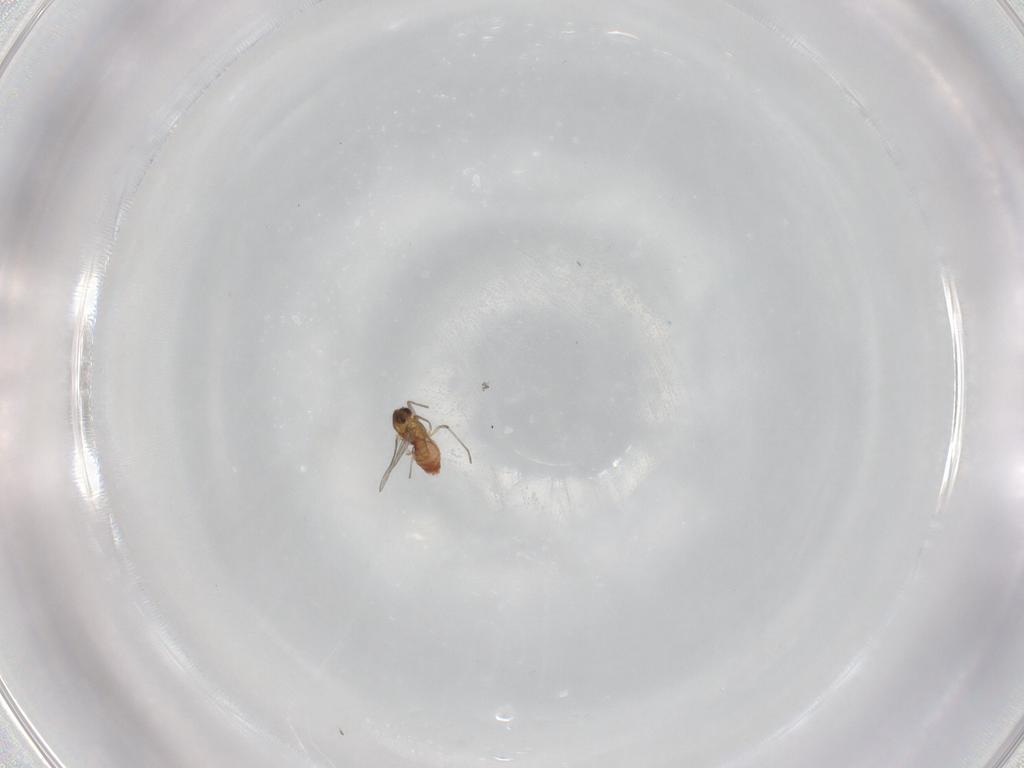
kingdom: Animalia
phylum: Arthropoda
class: Insecta
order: Diptera
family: Chironomidae
